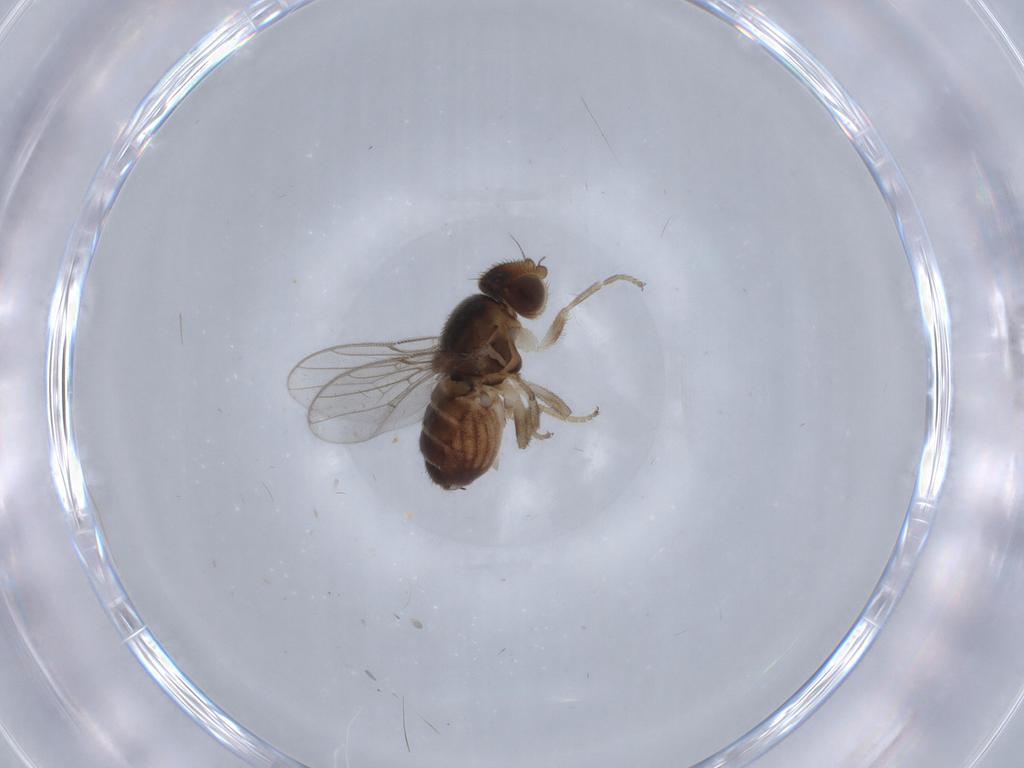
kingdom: Animalia
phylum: Arthropoda
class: Insecta
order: Diptera
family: Chloropidae
